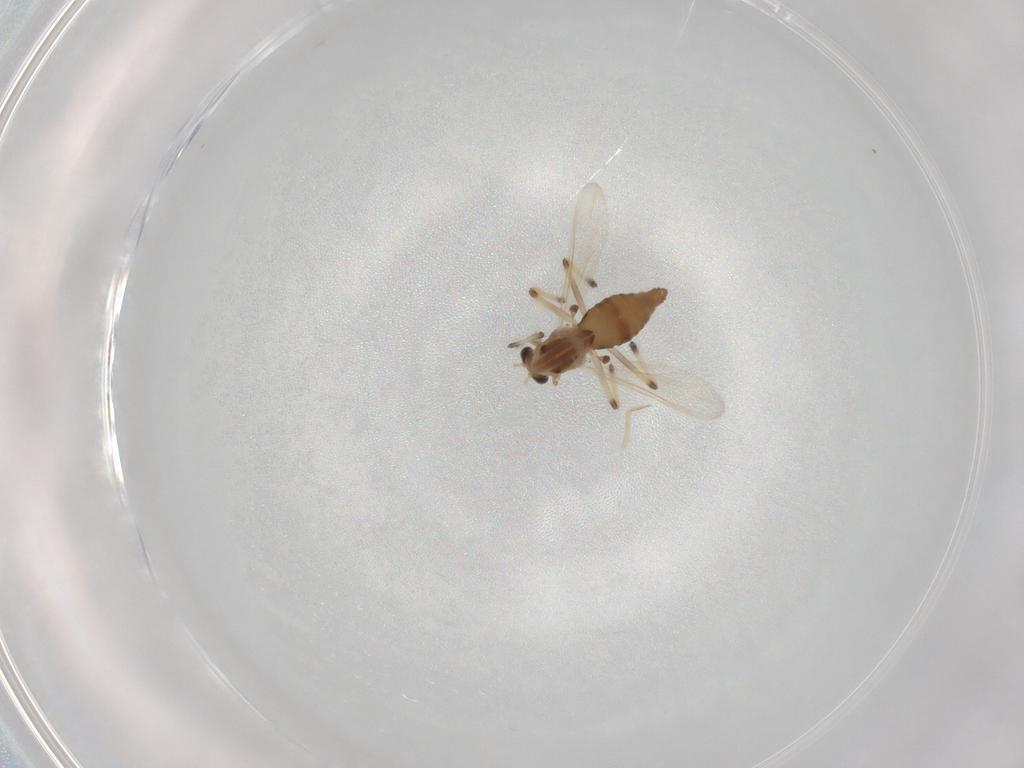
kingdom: Animalia
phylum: Arthropoda
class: Insecta
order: Diptera
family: Chironomidae
